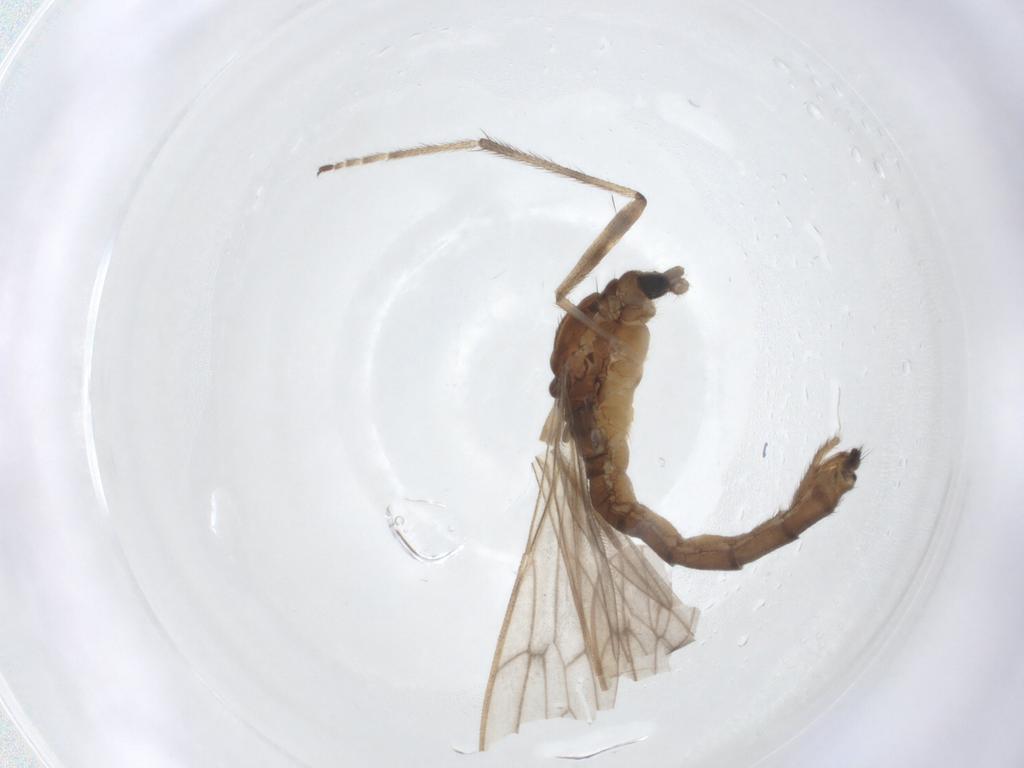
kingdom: Animalia
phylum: Arthropoda
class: Insecta
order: Diptera
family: Limoniidae
